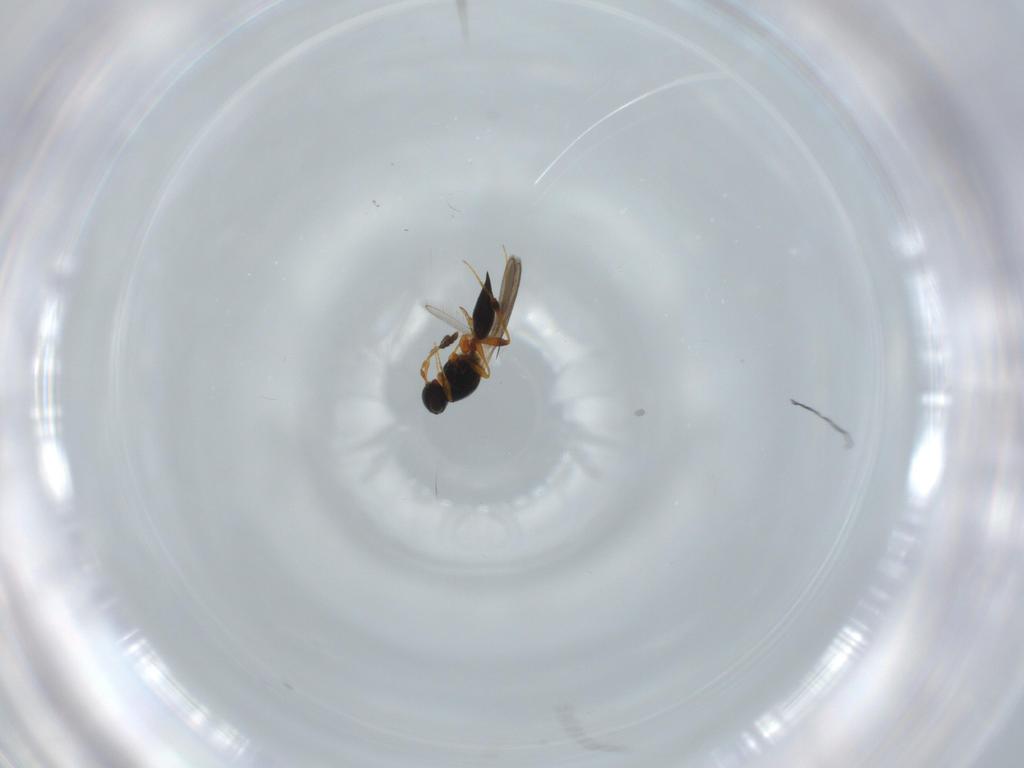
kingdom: Animalia
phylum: Arthropoda
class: Insecta
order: Hymenoptera
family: Platygastridae
